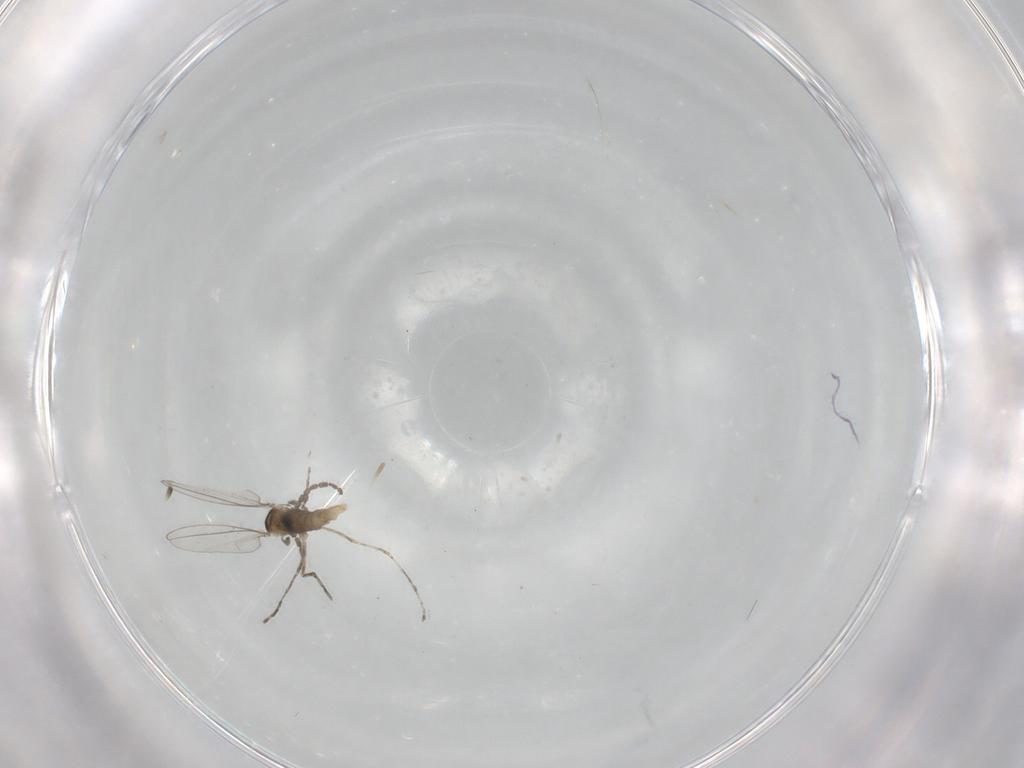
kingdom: Animalia
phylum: Arthropoda
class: Insecta
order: Diptera
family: Cecidomyiidae
